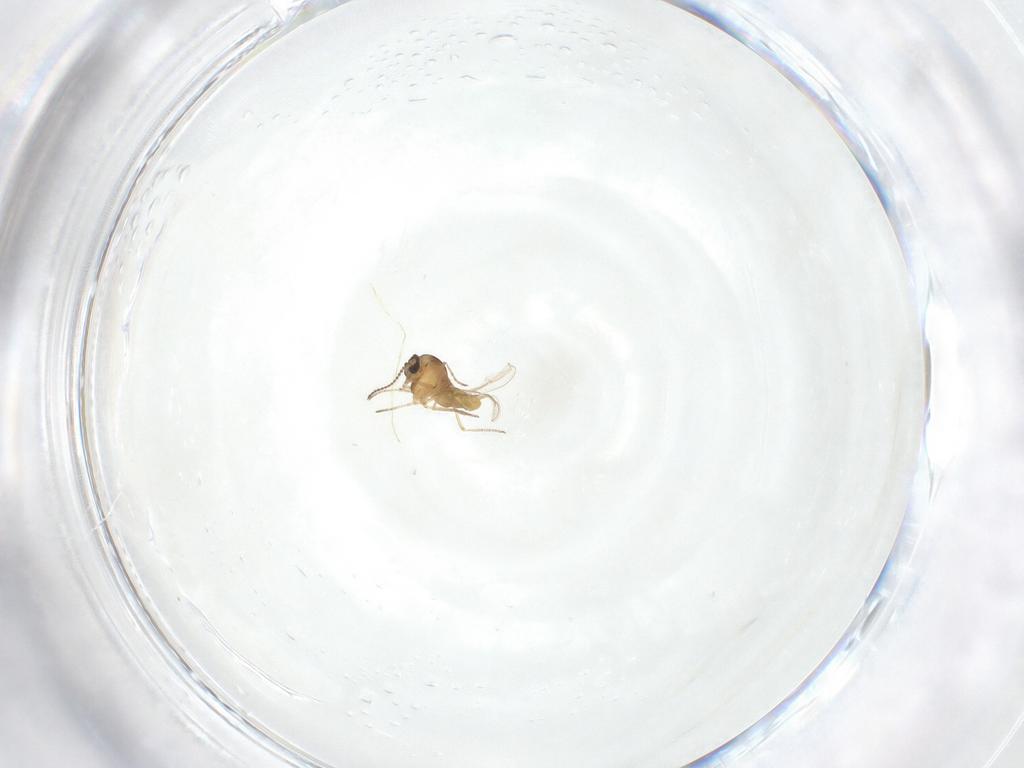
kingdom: Animalia
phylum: Arthropoda
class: Insecta
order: Diptera
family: Ceratopogonidae
